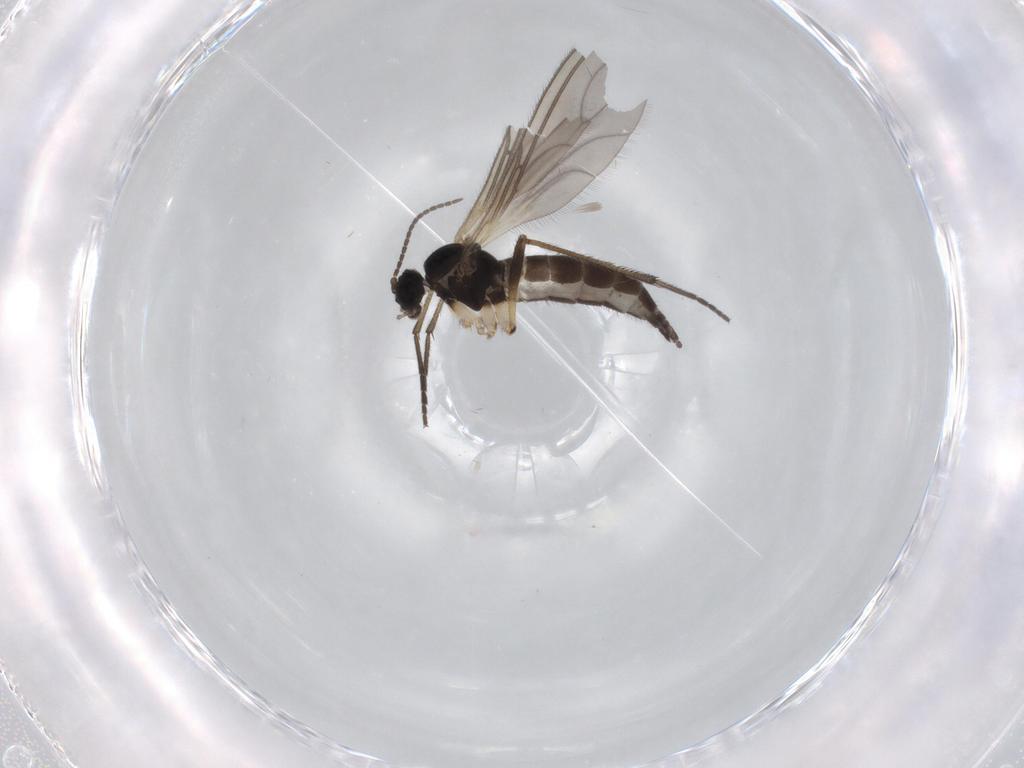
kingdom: Animalia
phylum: Arthropoda
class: Insecta
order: Diptera
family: Sciaridae
